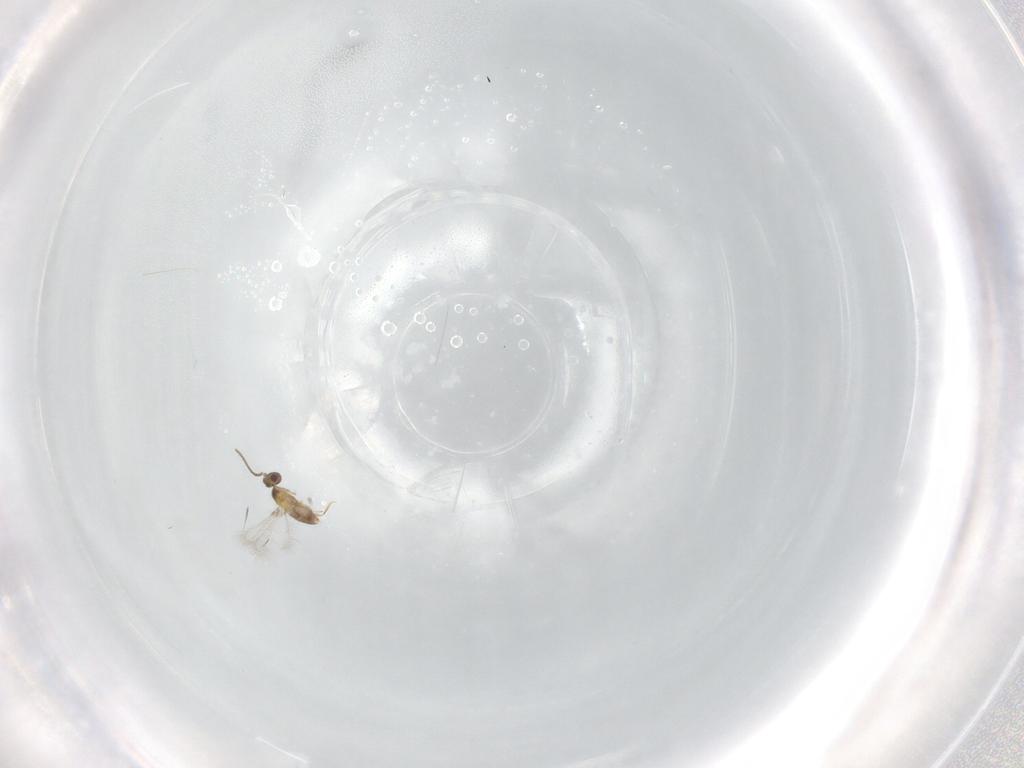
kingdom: Animalia
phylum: Arthropoda
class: Insecta
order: Hymenoptera
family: Mymaridae
